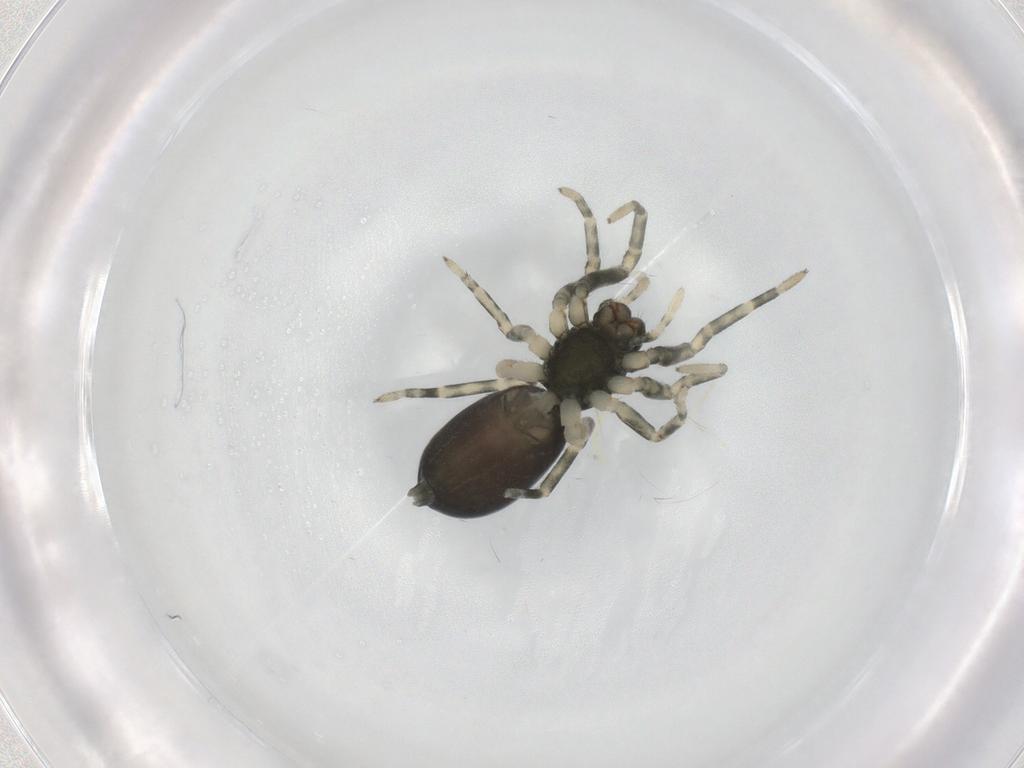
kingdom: Animalia
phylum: Arthropoda
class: Arachnida
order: Araneae
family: Trachelidae
